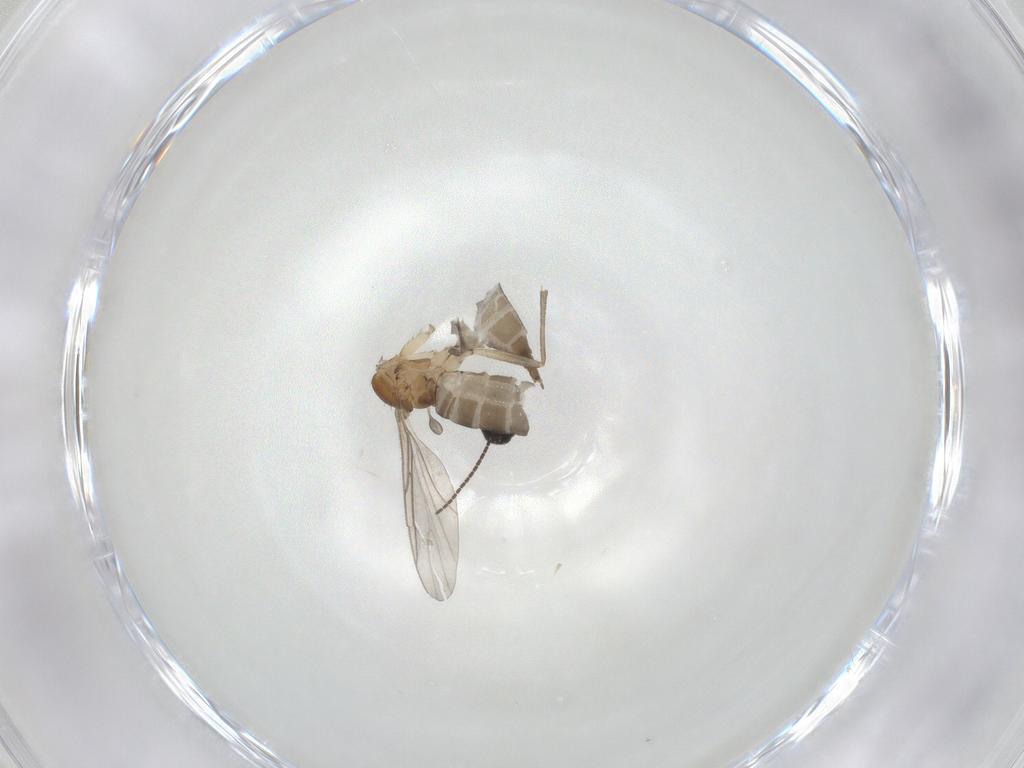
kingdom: Animalia
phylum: Arthropoda
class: Insecta
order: Diptera
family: Sciaridae
